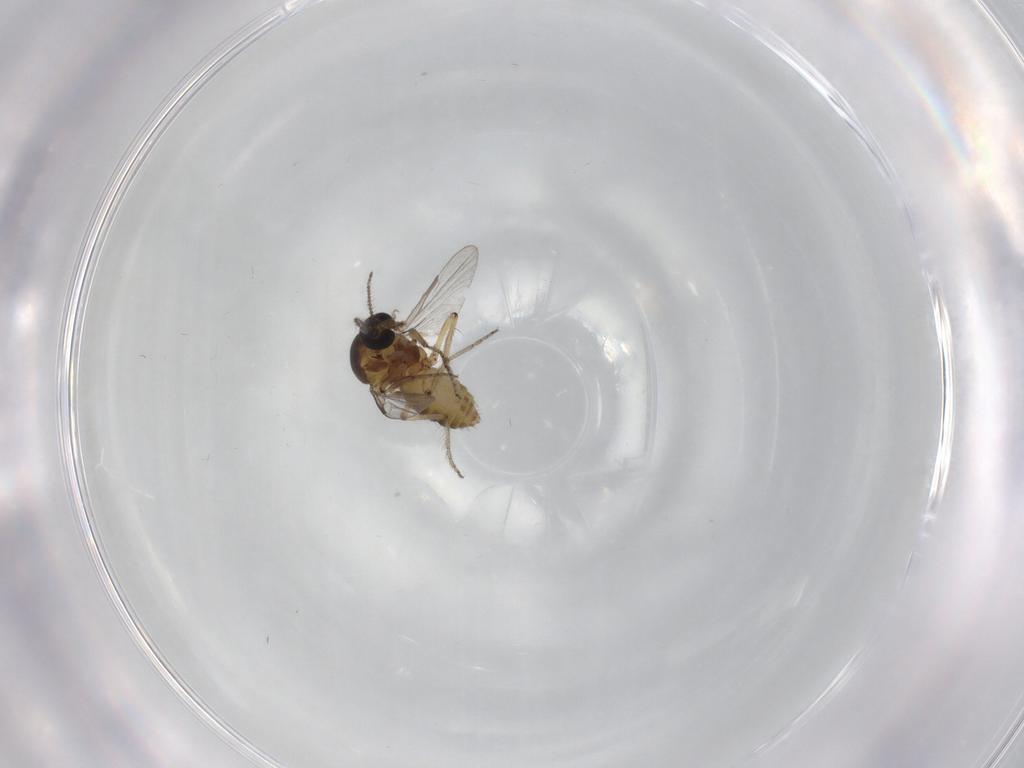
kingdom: Animalia
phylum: Arthropoda
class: Insecta
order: Diptera
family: Ceratopogonidae
